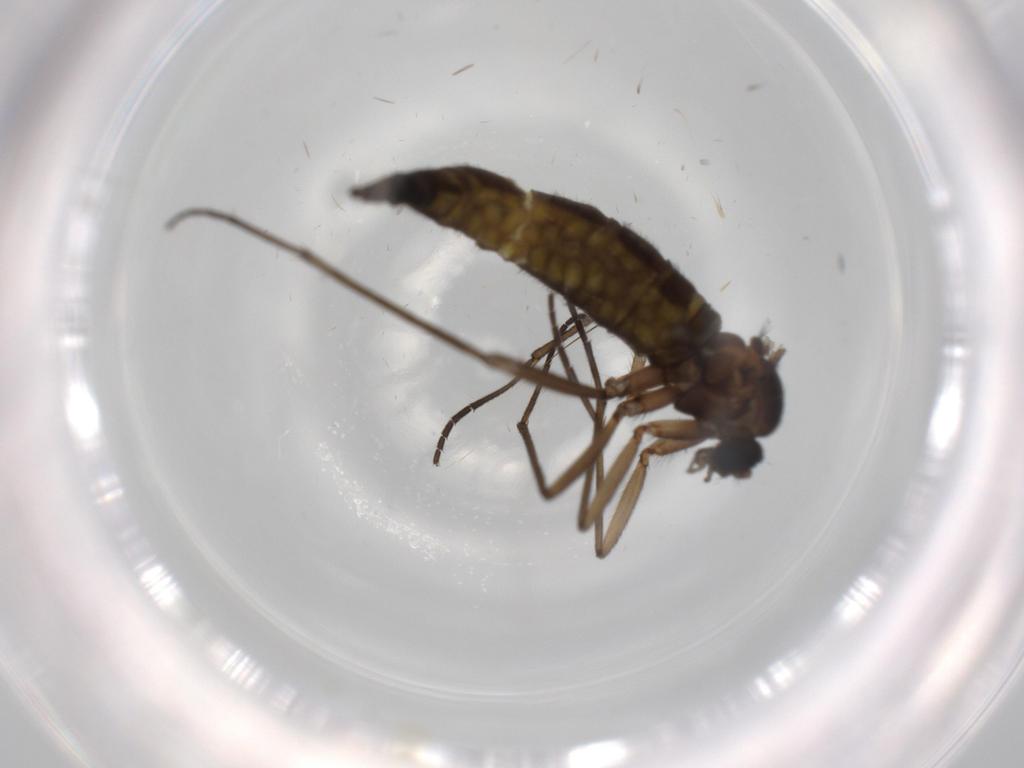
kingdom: Animalia
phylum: Arthropoda
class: Insecta
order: Diptera
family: Sciaridae
